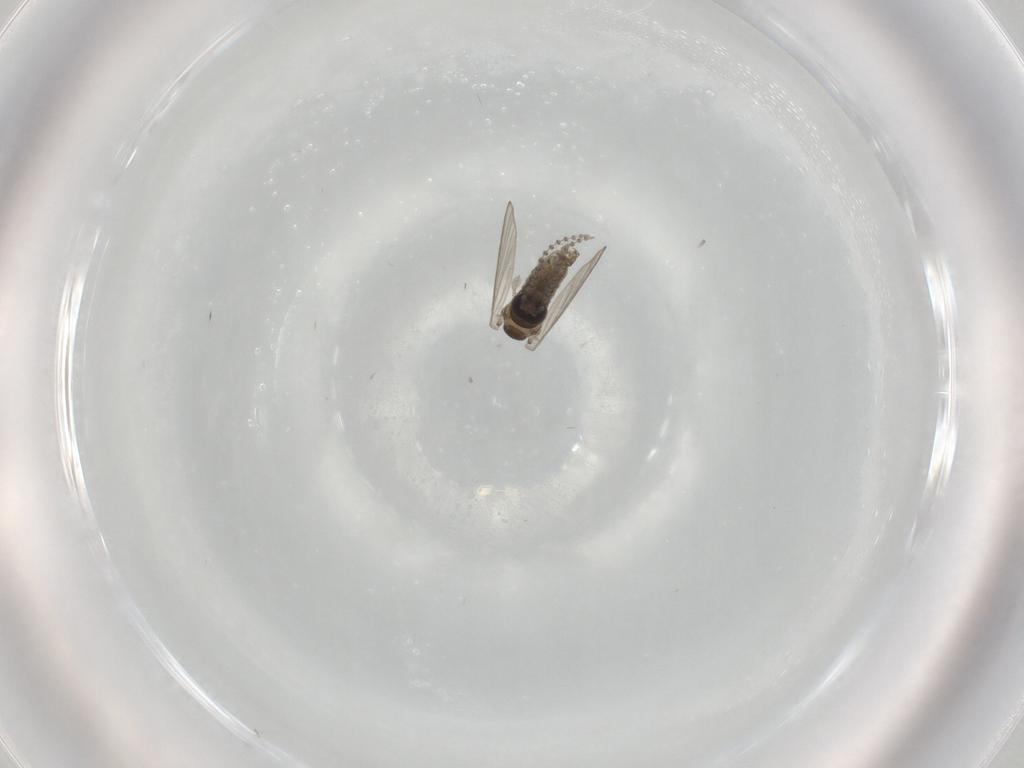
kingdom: Animalia
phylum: Arthropoda
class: Insecta
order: Diptera
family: Psychodidae
